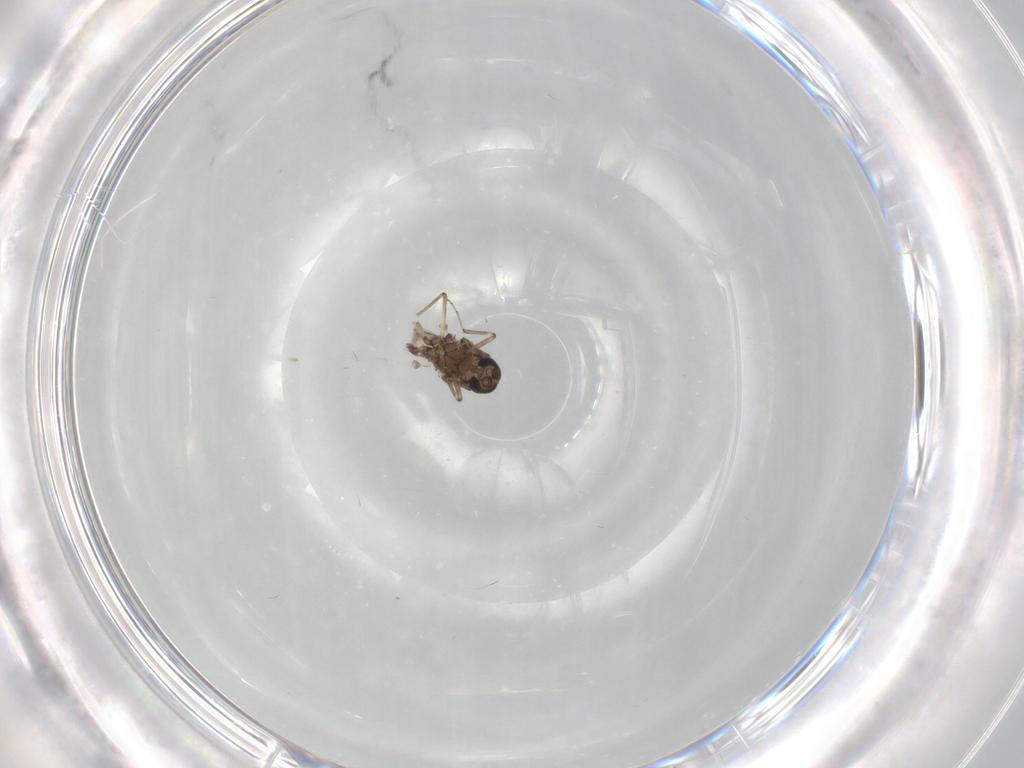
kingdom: Animalia
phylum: Arthropoda
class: Insecta
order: Diptera
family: Ceratopogonidae
